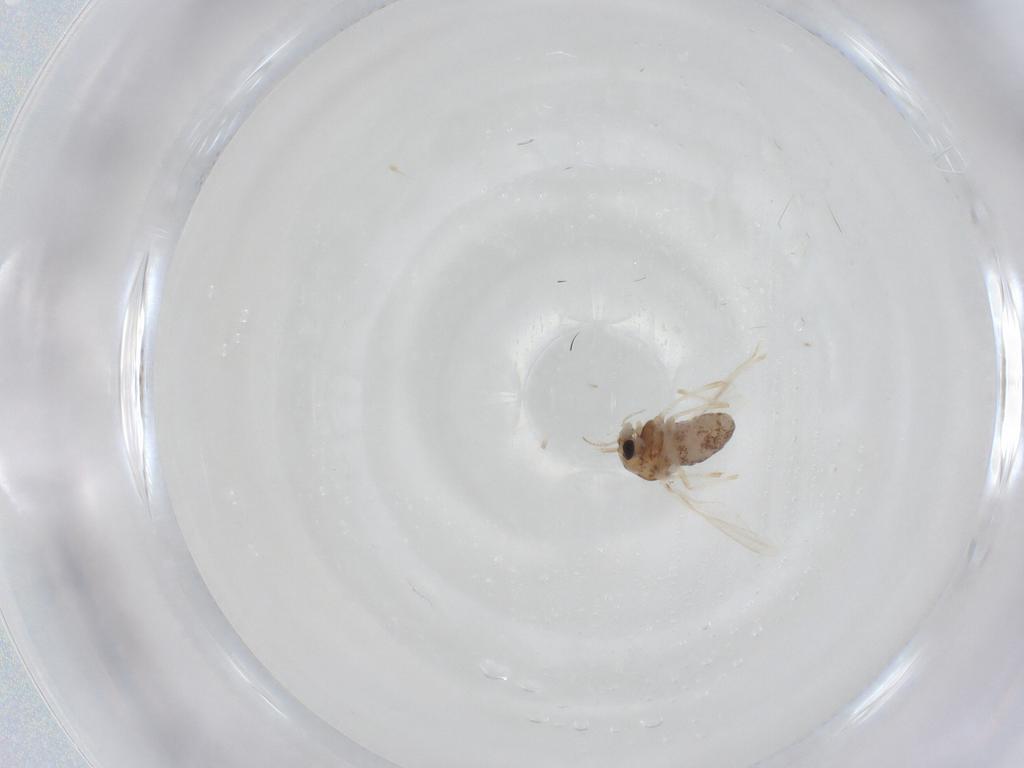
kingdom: Animalia
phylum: Arthropoda
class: Insecta
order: Diptera
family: Chironomidae
